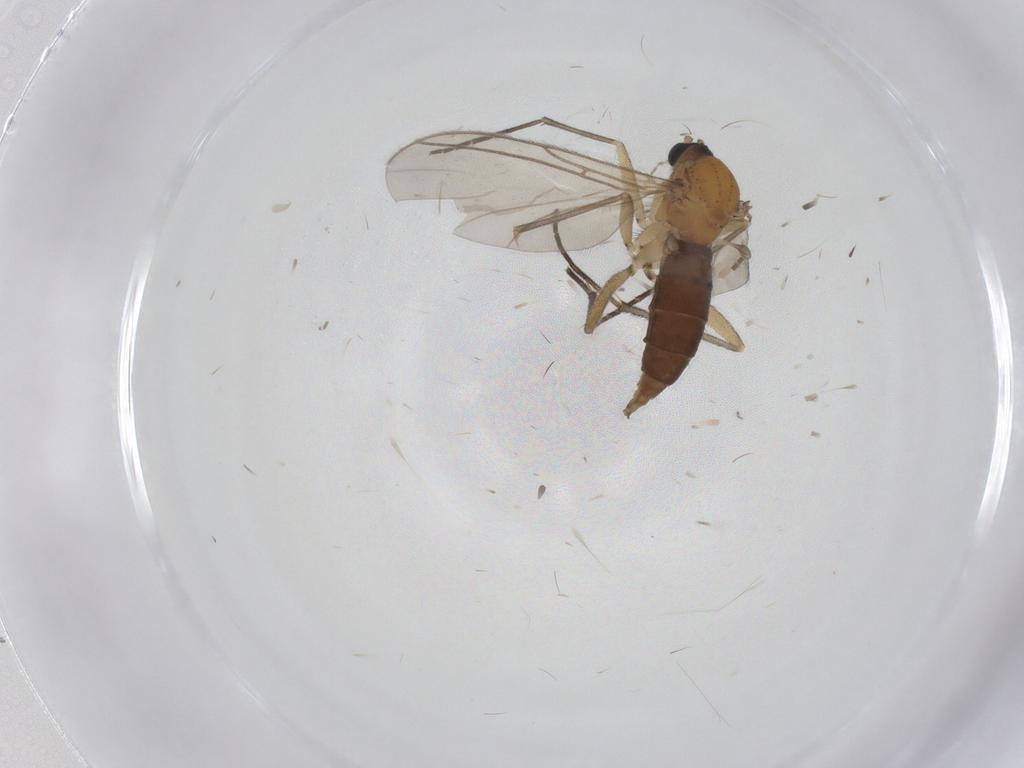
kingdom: Animalia
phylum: Arthropoda
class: Insecta
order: Diptera
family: Sciaridae
